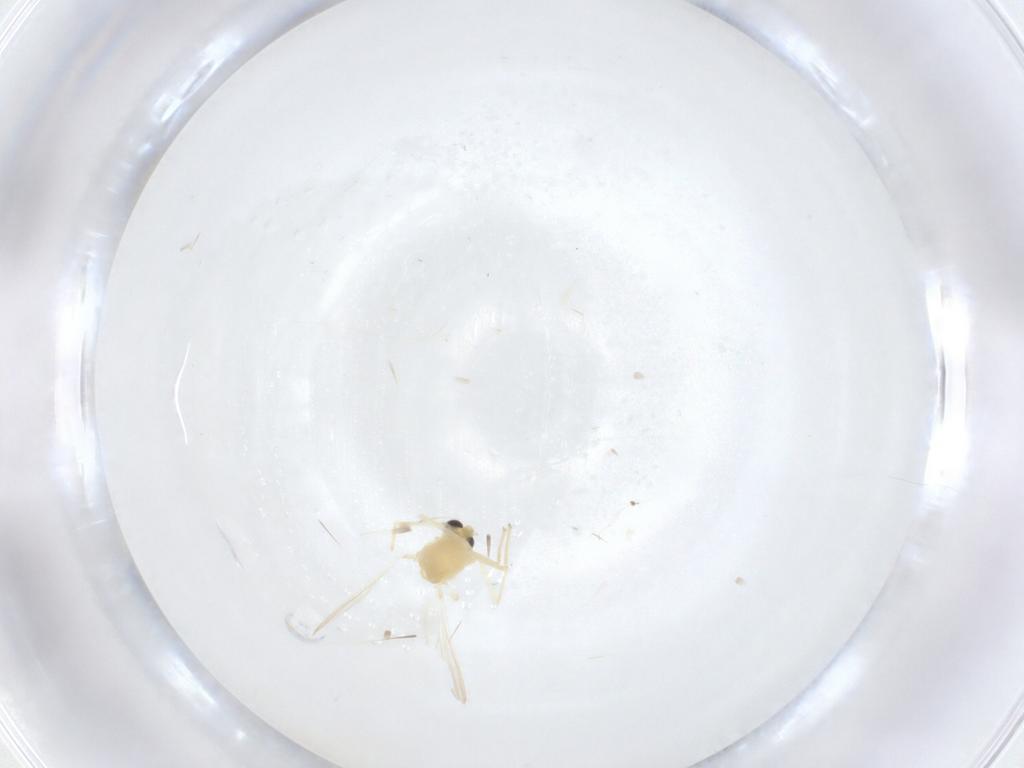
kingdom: Animalia
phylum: Arthropoda
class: Insecta
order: Diptera
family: Chironomidae
